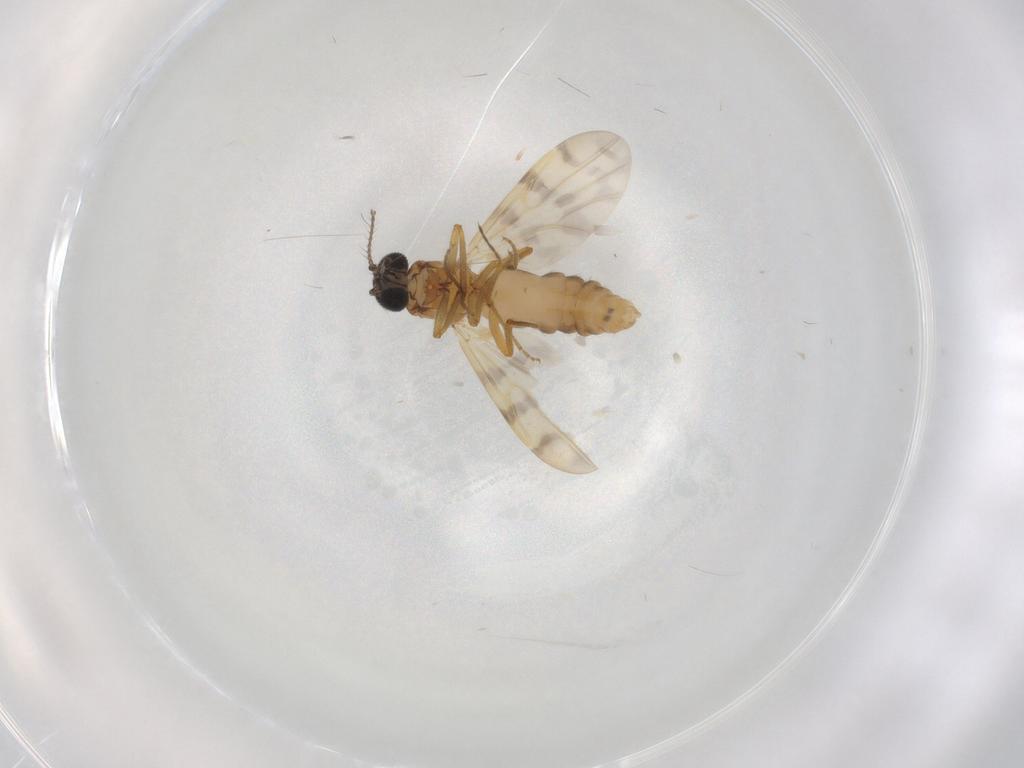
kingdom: Animalia
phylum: Arthropoda
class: Insecta
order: Diptera
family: Ceratopogonidae
